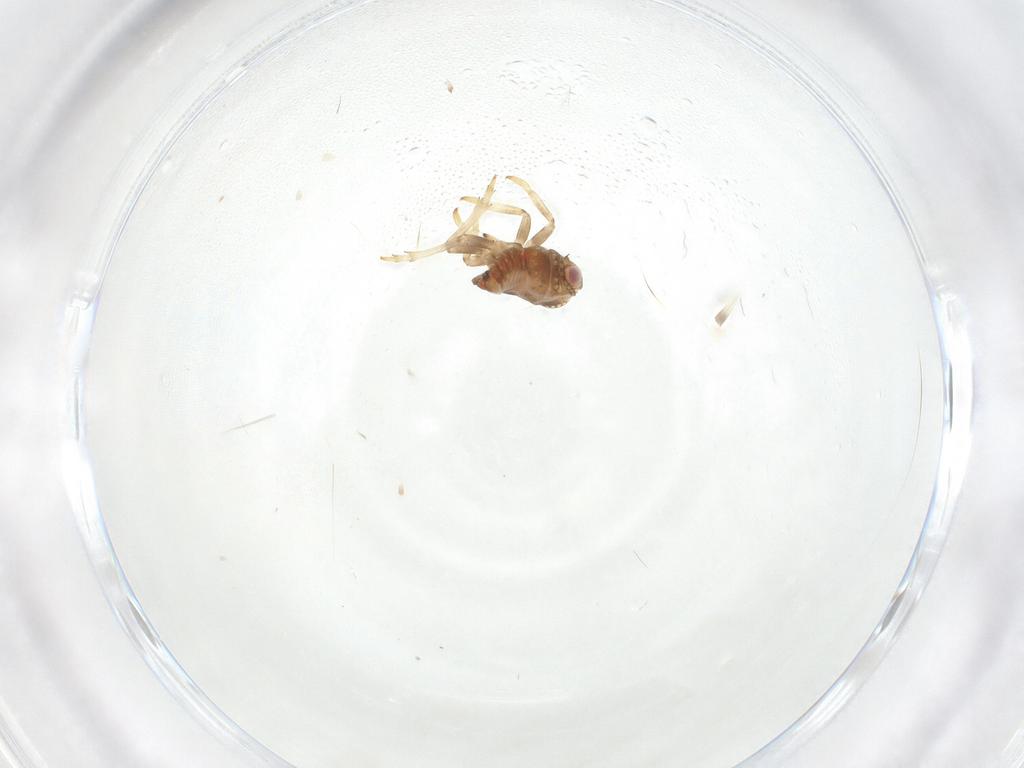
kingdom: Animalia
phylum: Arthropoda
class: Insecta
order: Hemiptera
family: Issidae
